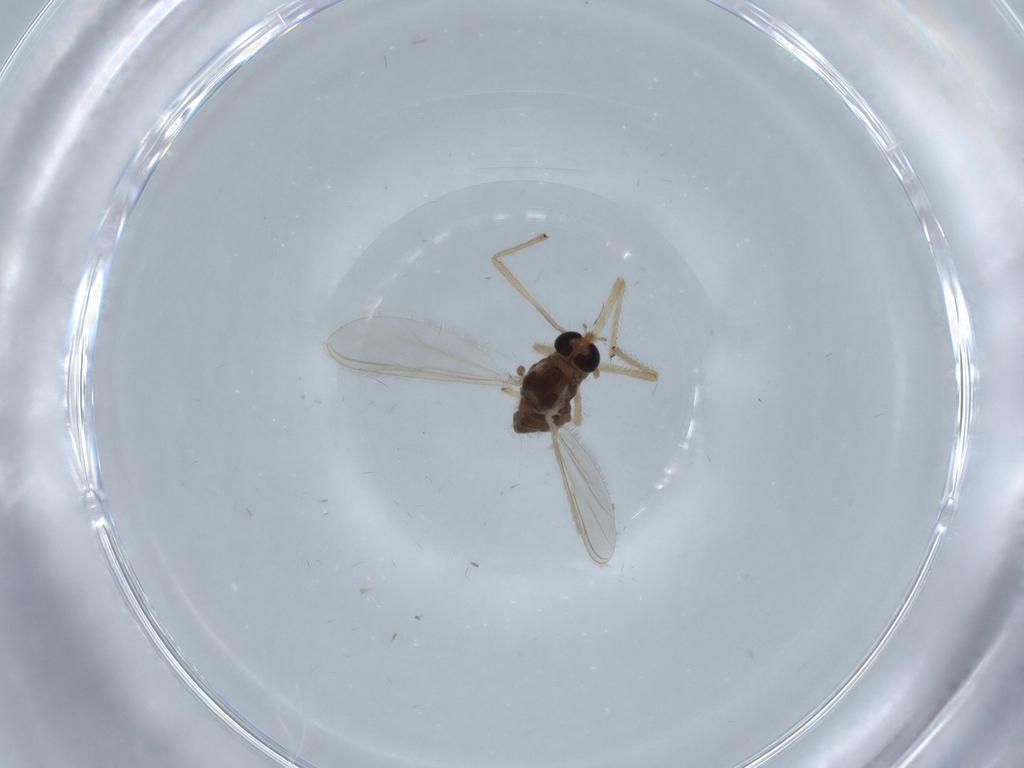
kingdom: Animalia
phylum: Arthropoda
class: Insecta
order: Diptera
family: Chironomidae
